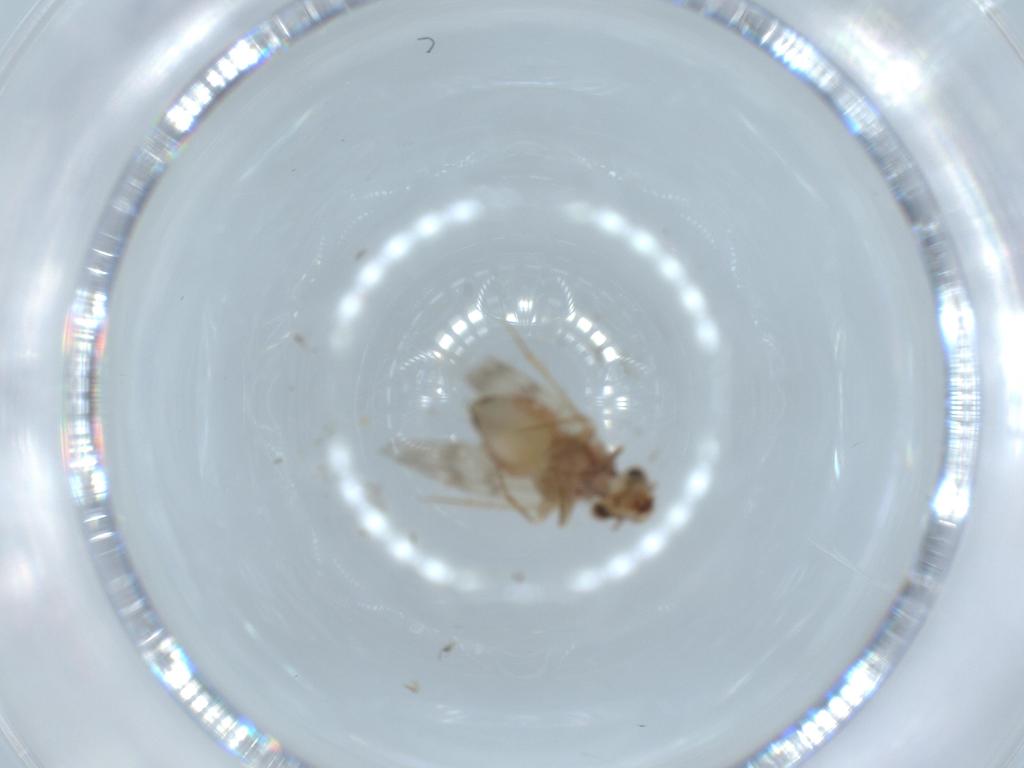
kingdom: Animalia
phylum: Arthropoda
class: Insecta
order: Psocodea
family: Lepidopsocidae
